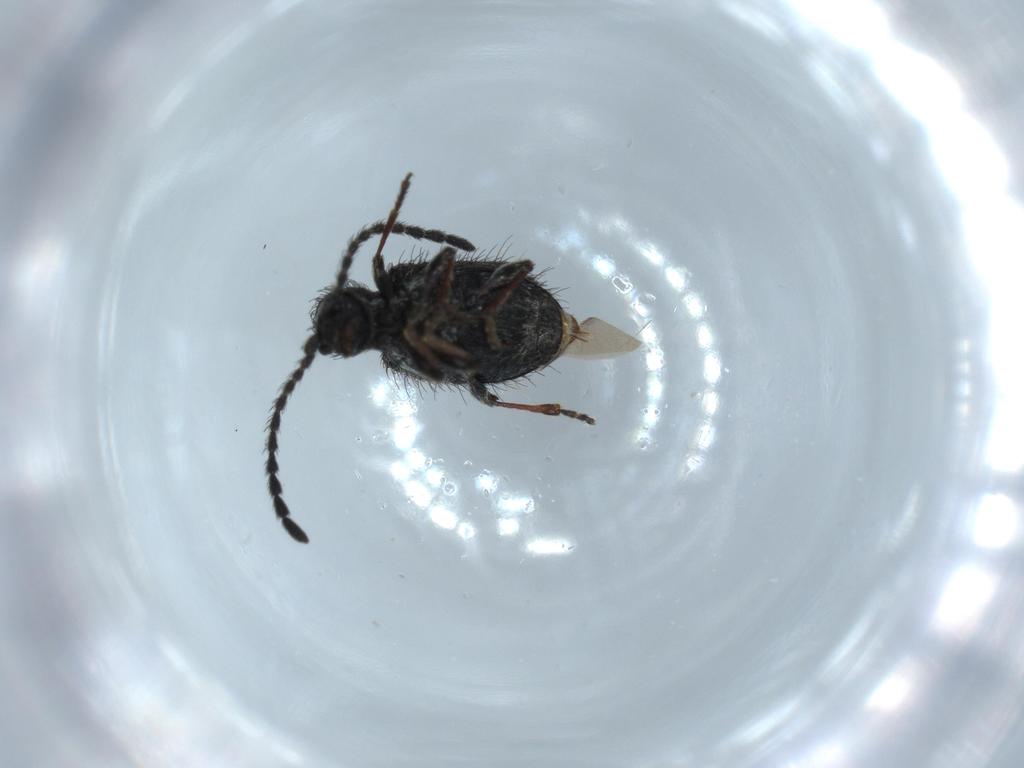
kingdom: Animalia
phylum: Arthropoda
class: Insecta
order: Coleoptera
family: Ptinidae
